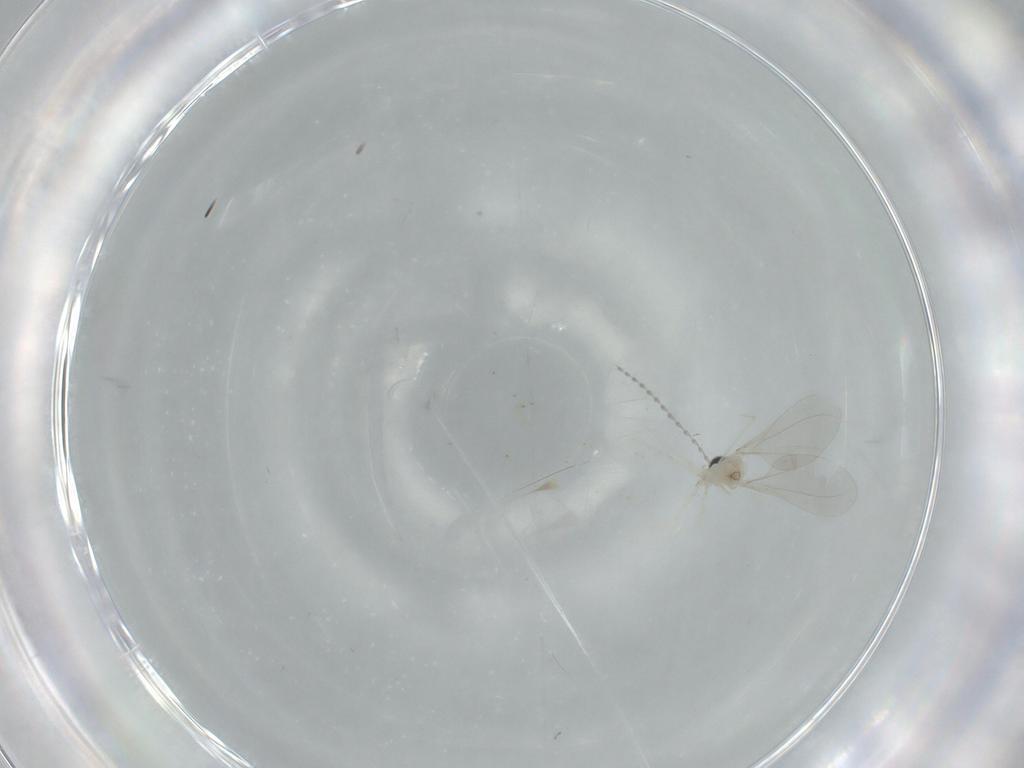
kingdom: Animalia
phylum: Arthropoda
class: Insecta
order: Diptera
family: Cecidomyiidae
